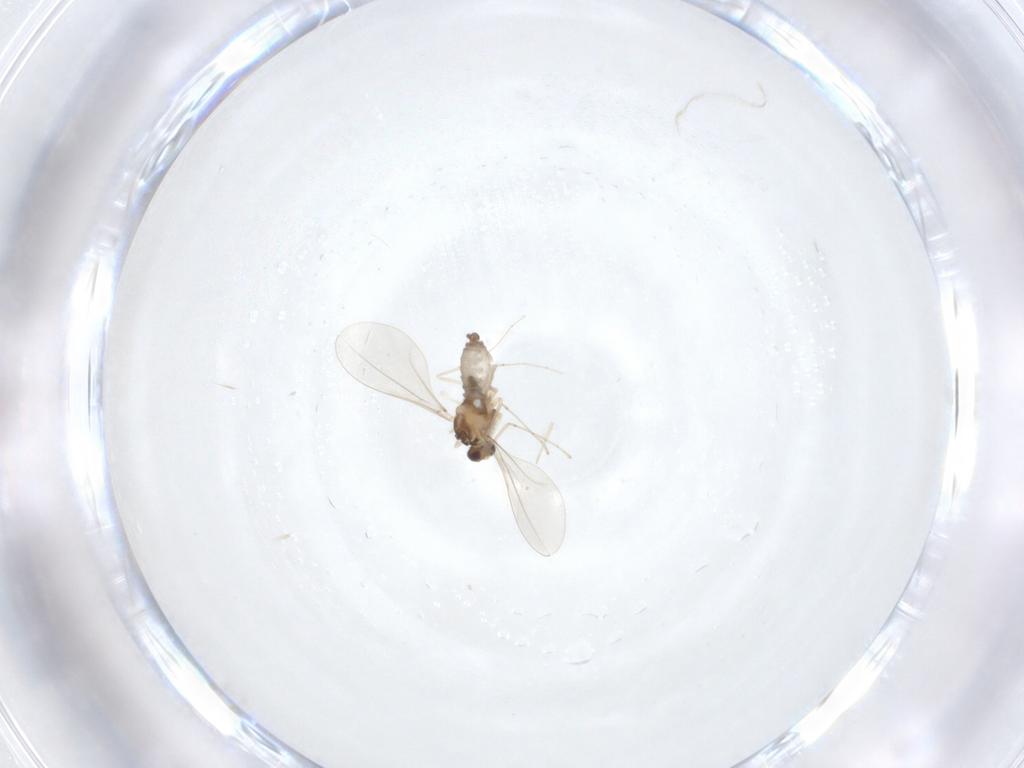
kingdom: Animalia
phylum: Arthropoda
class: Insecta
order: Diptera
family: Cecidomyiidae
